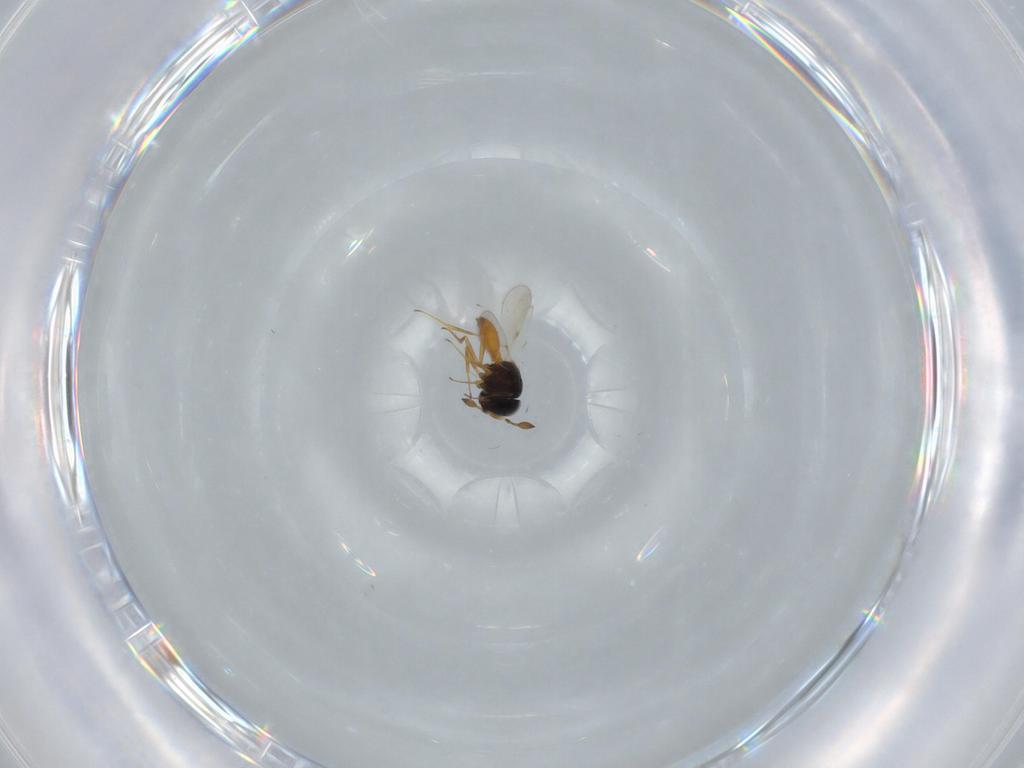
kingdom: Animalia
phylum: Arthropoda
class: Insecta
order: Hymenoptera
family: Scelionidae
